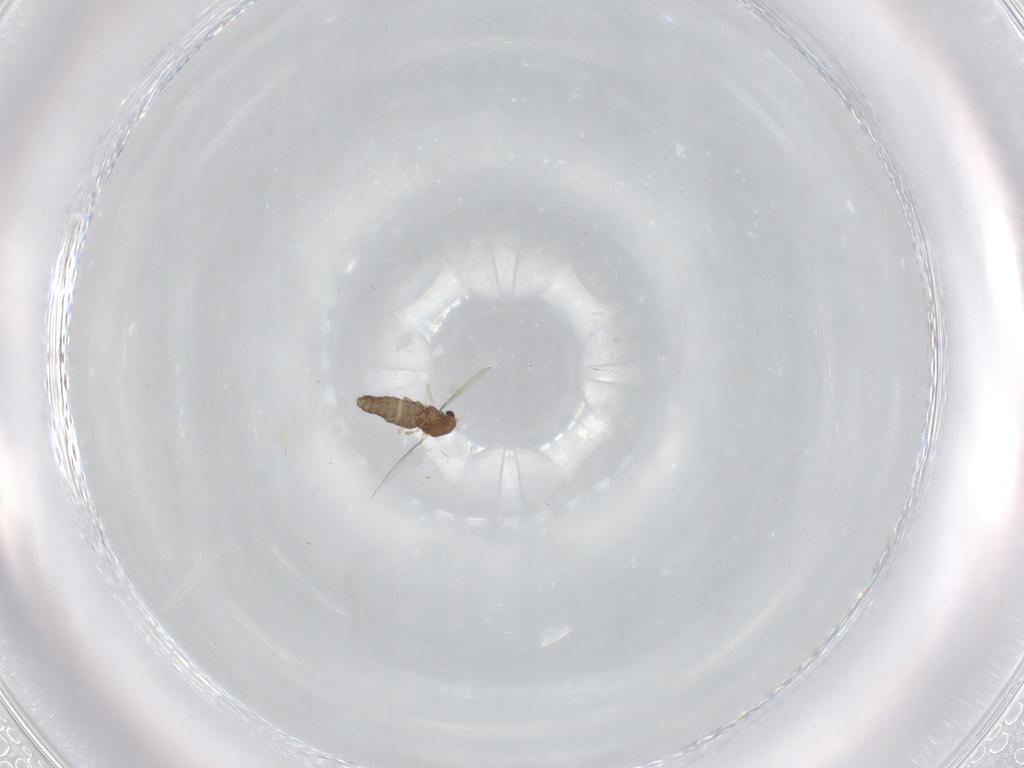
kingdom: Animalia
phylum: Arthropoda
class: Insecta
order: Diptera
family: Chironomidae
